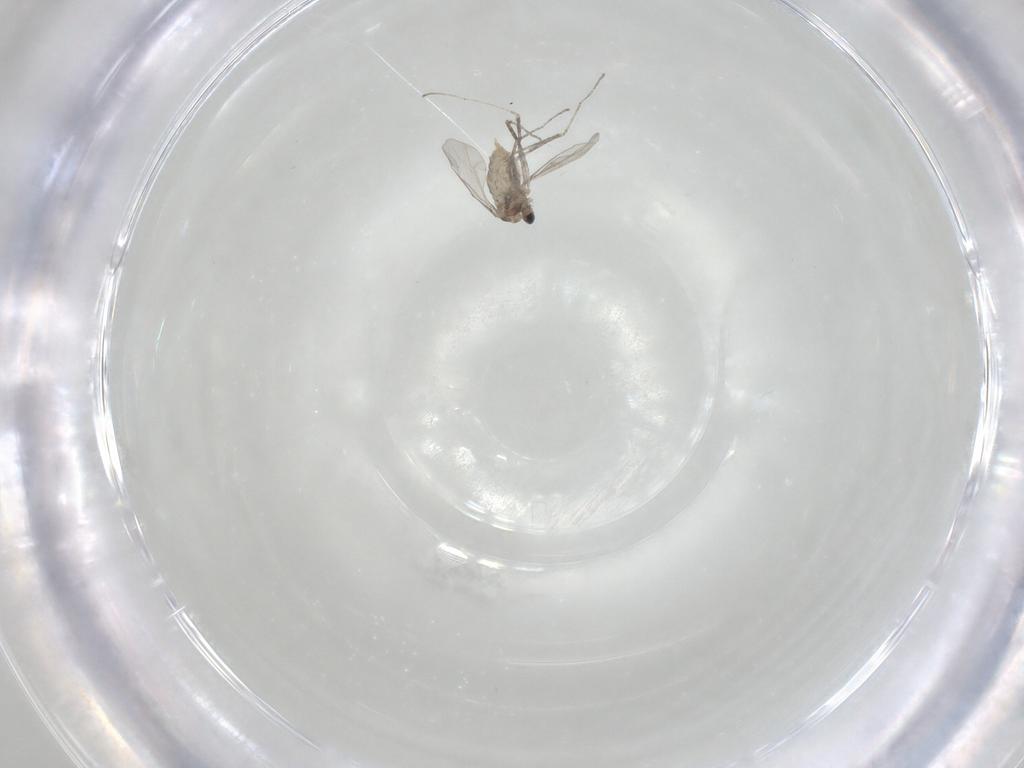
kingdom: Animalia
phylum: Arthropoda
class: Insecta
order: Diptera
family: Cecidomyiidae
